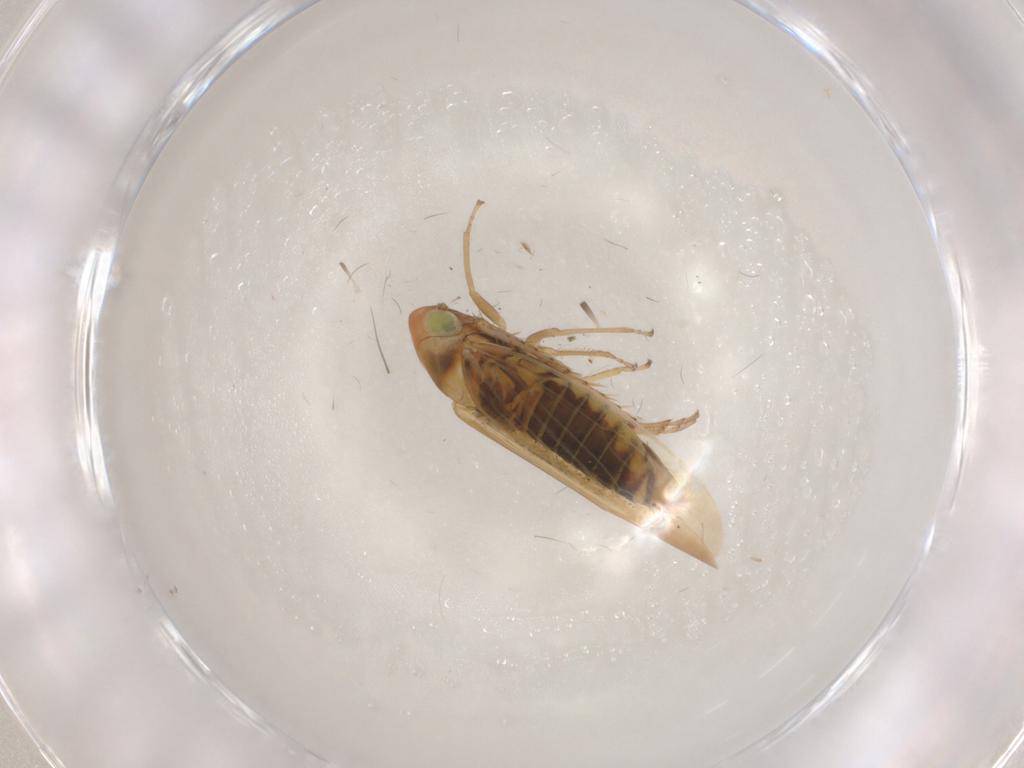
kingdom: Animalia
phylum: Arthropoda
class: Insecta
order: Hemiptera
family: Cicadellidae
